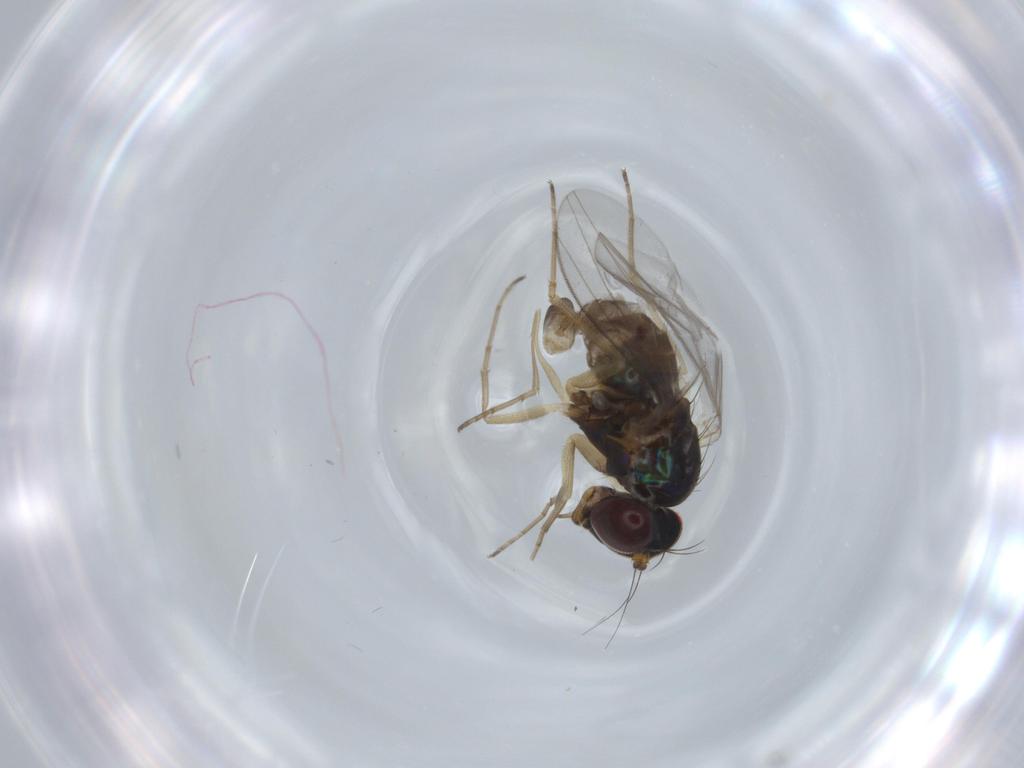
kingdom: Animalia
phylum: Arthropoda
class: Insecta
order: Diptera
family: Dolichopodidae
